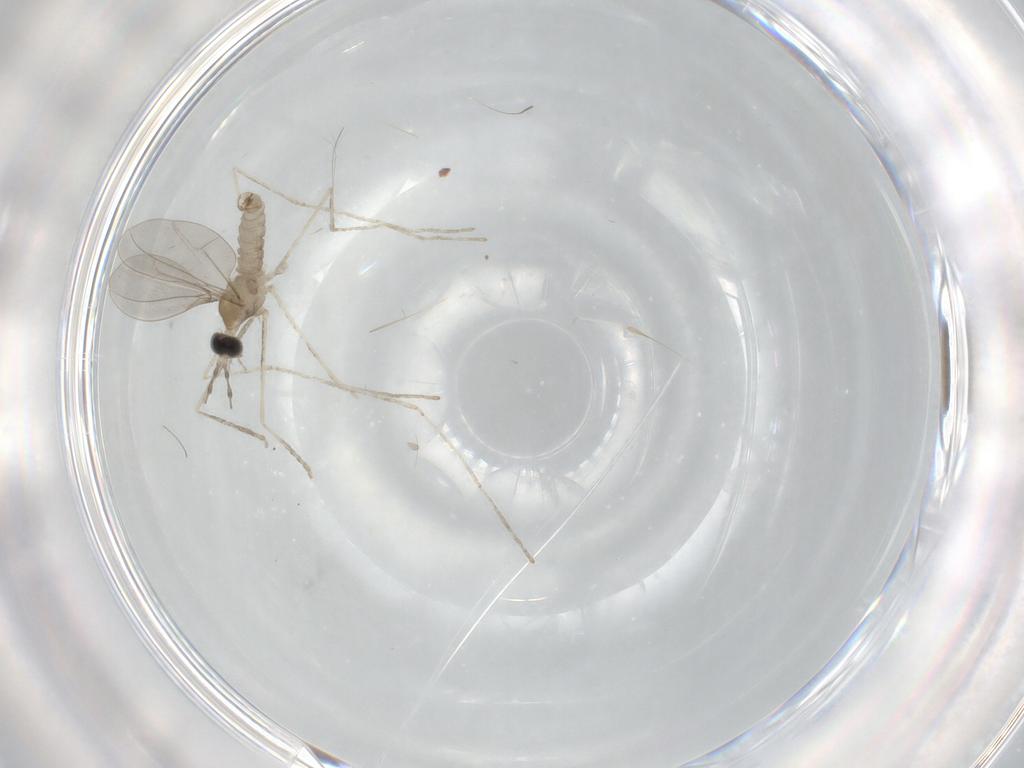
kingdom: Animalia
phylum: Arthropoda
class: Insecta
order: Diptera
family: Cecidomyiidae
